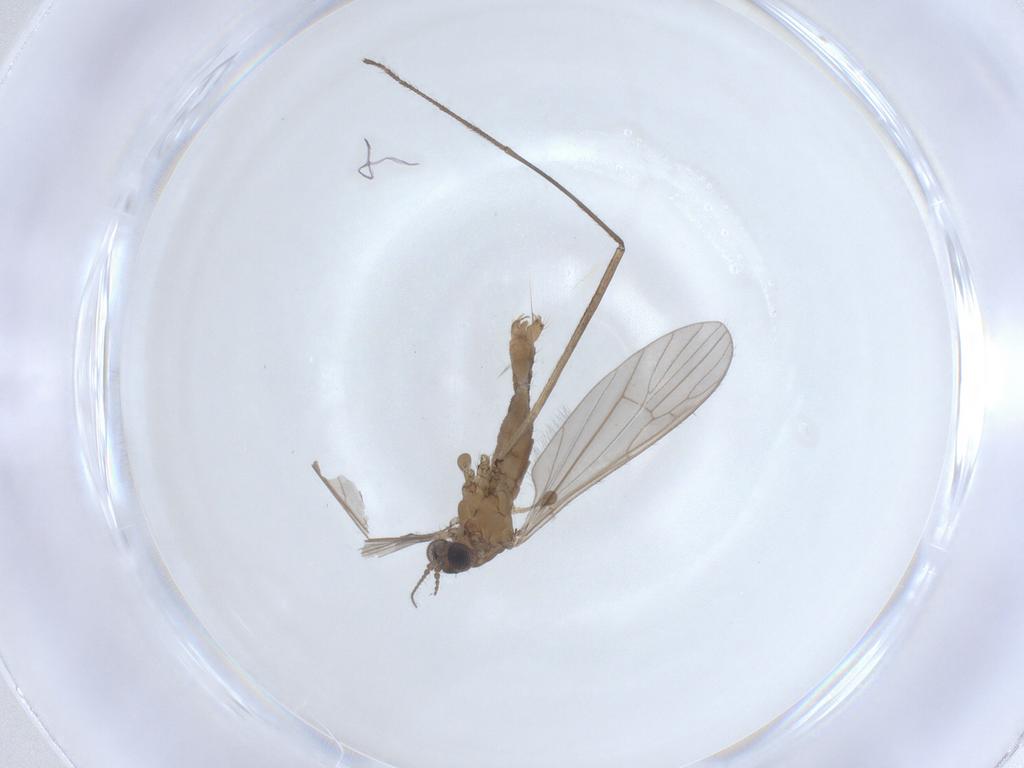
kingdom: Animalia
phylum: Arthropoda
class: Insecta
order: Diptera
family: Limoniidae
